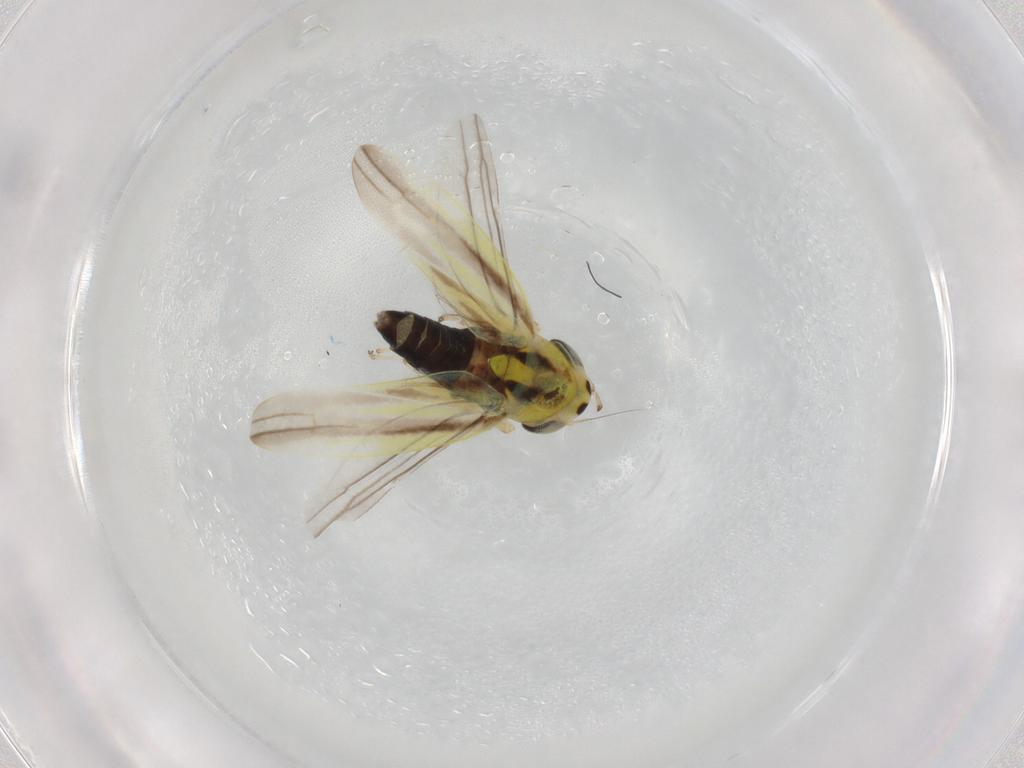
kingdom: Animalia
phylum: Arthropoda
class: Insecta
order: Hemiptera
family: Cicadellidae
